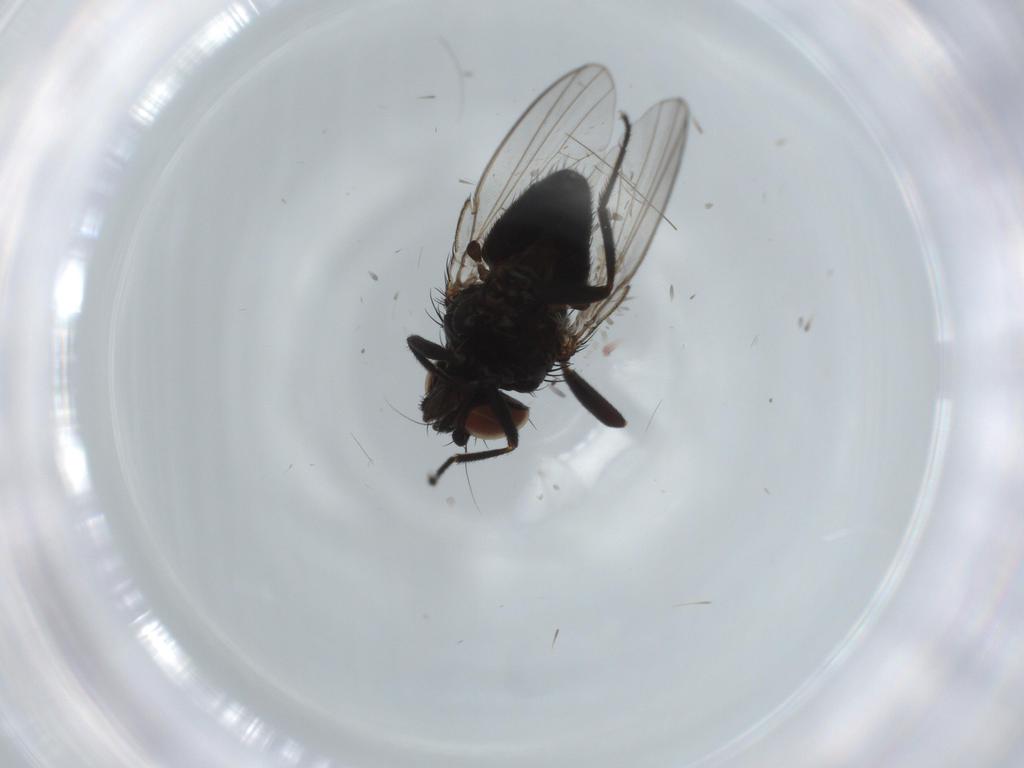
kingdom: Animalia
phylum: Arthropoda
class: Insecta
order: Diptera
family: Milichiidae
